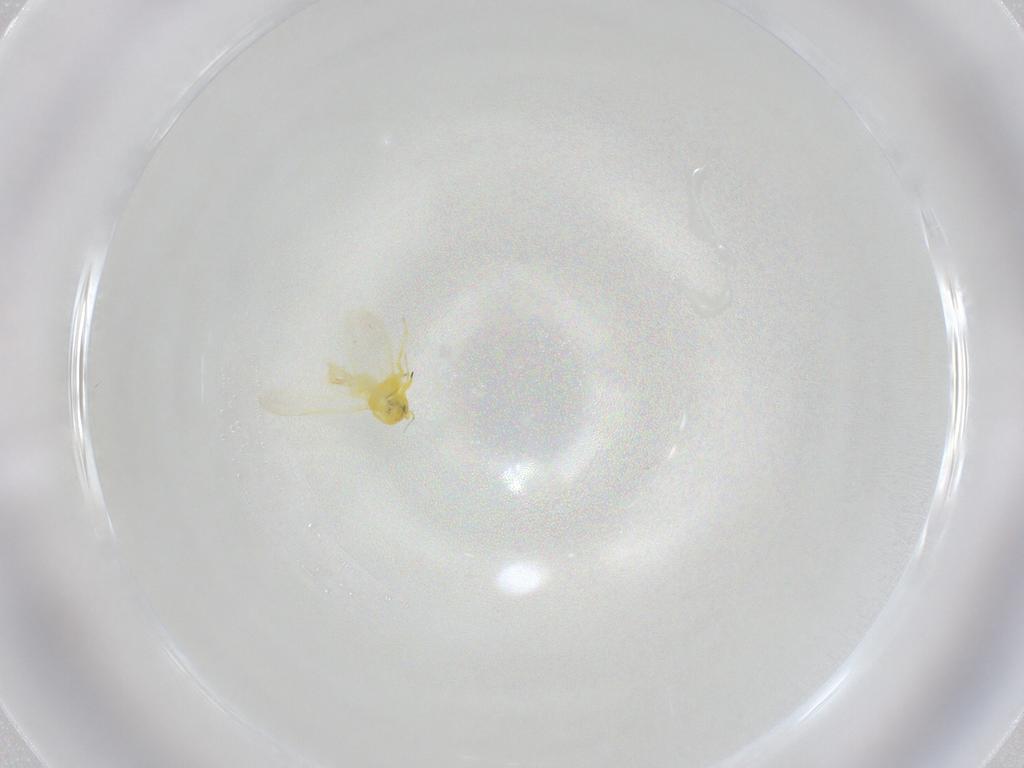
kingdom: Animalia
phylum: Arthropoda
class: Insecta
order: Hemiptera
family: Aleyrodidae
